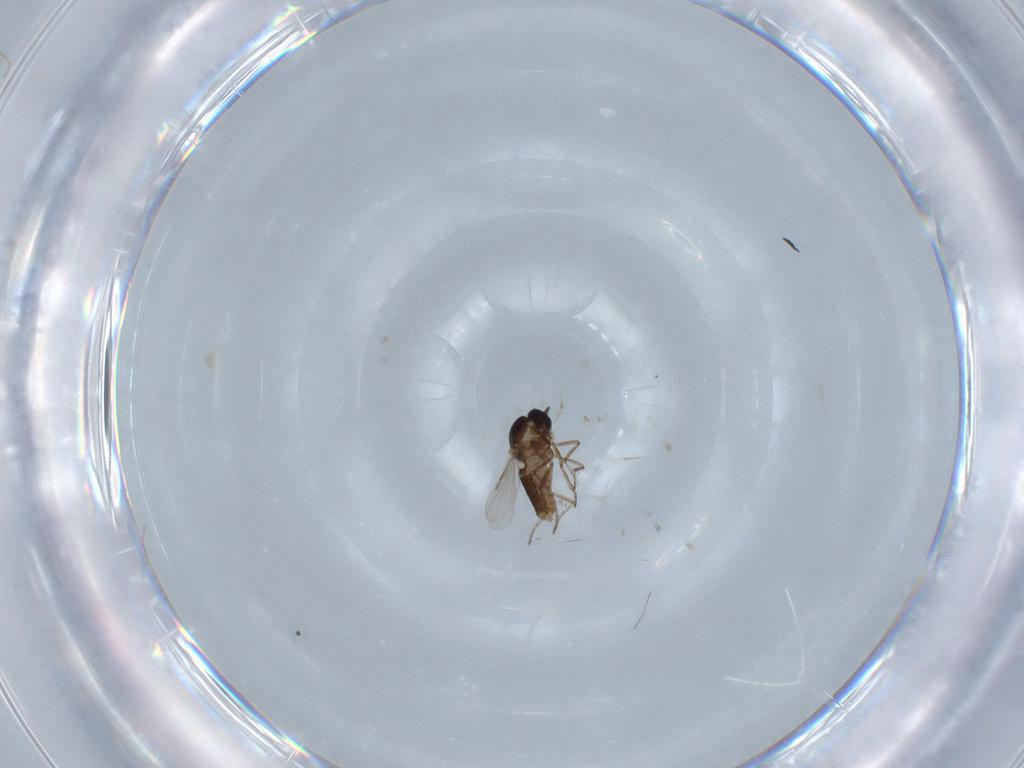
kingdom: Animalia
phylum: Arthropoda
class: Insecta
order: Diptera
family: Ceratopogonidae
